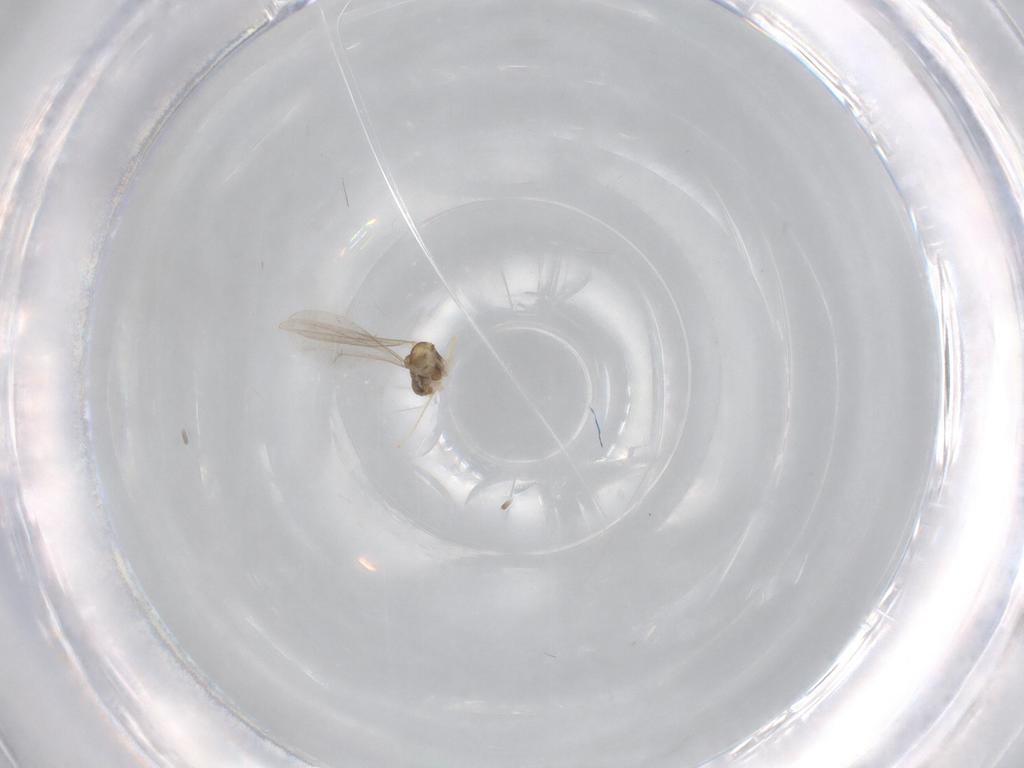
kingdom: Animalia
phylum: Arthropoda
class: Insecta
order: Diptera
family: Cecidomyiidae
